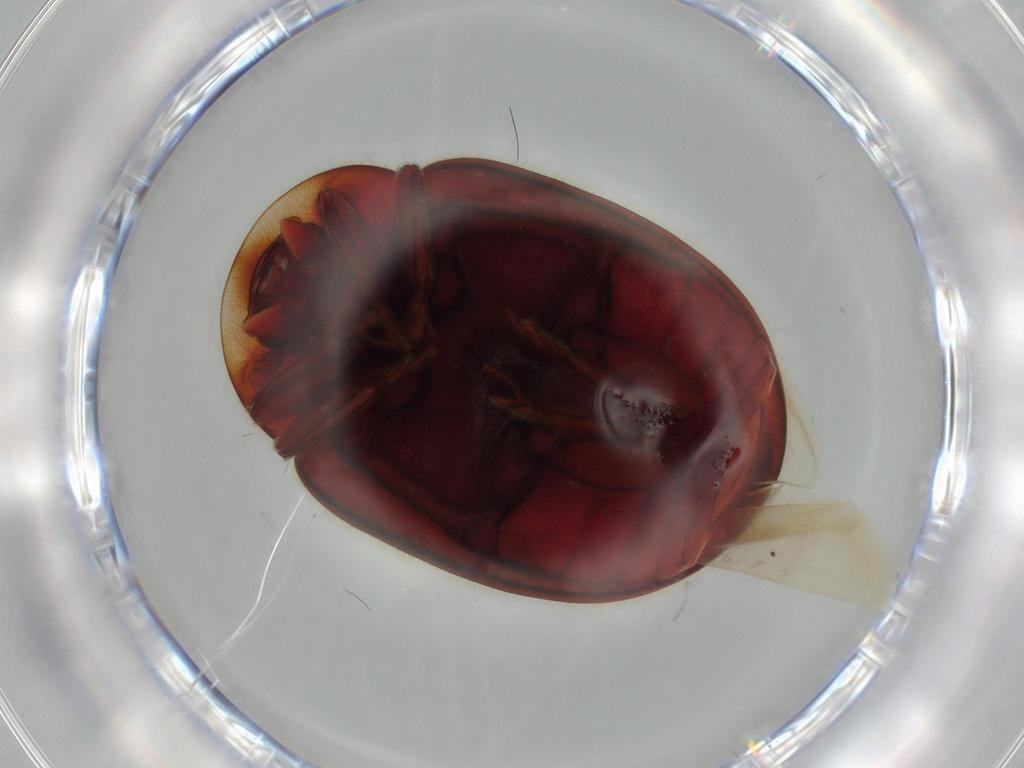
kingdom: Animalia
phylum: Arthropoda
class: Insecta
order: Coleoptera
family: Coccinellidae
